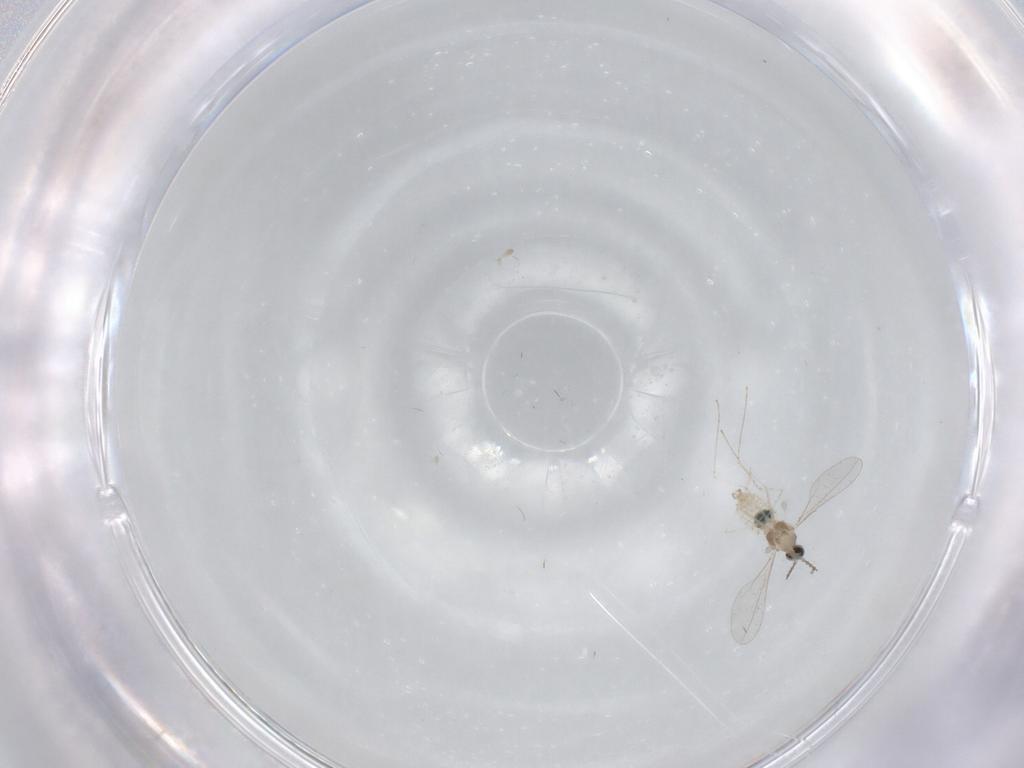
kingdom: Animalia
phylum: Arthropoda
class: Insecta
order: Diptera
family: Cecidomyiidae
